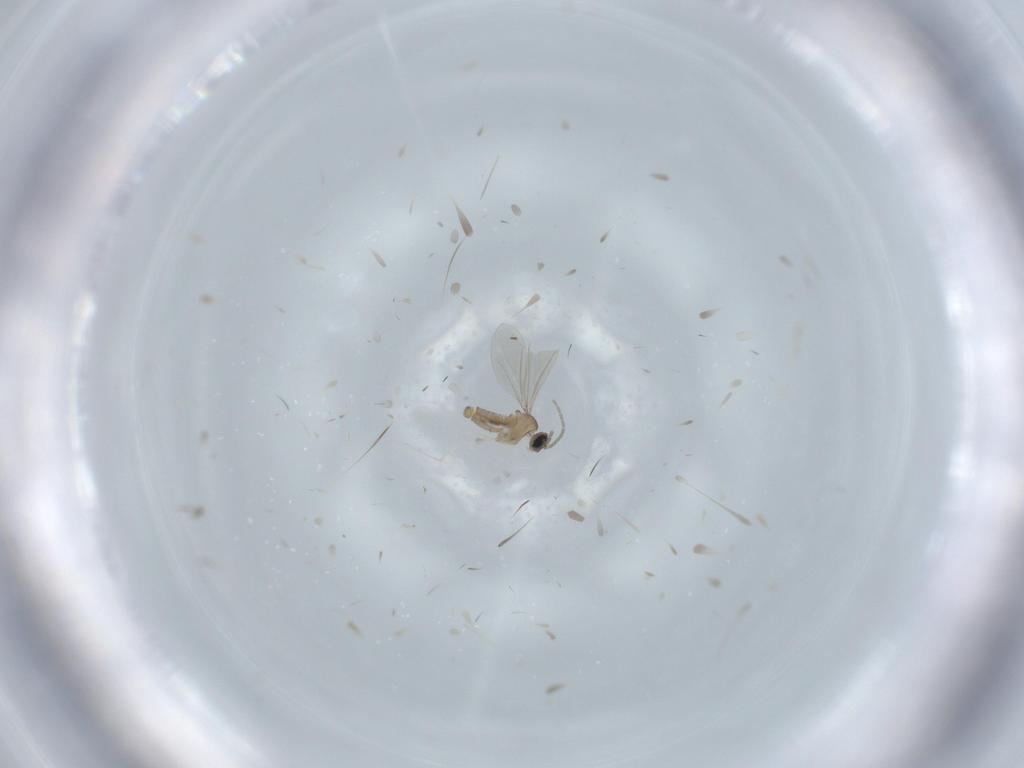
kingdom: Animalia
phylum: Arthropoda
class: Insecta
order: Diptera
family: Cecidomyiidae
